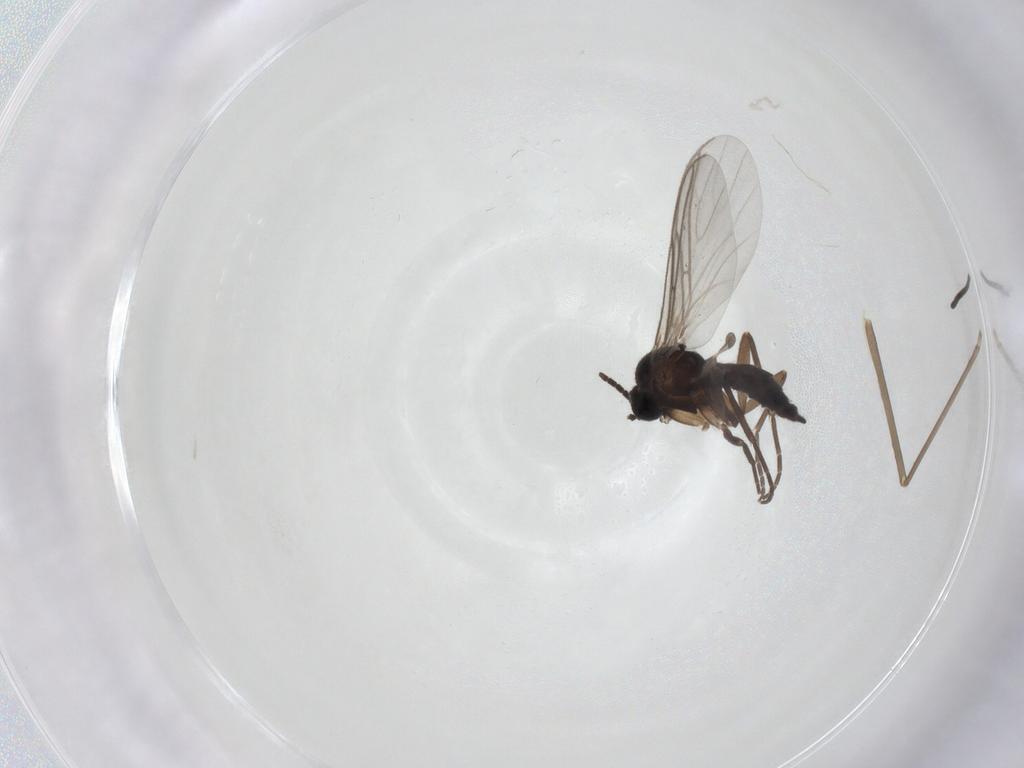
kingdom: Animalia
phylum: Arthropoda
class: Insecta
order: Diptera
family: Cecidomyiidae
